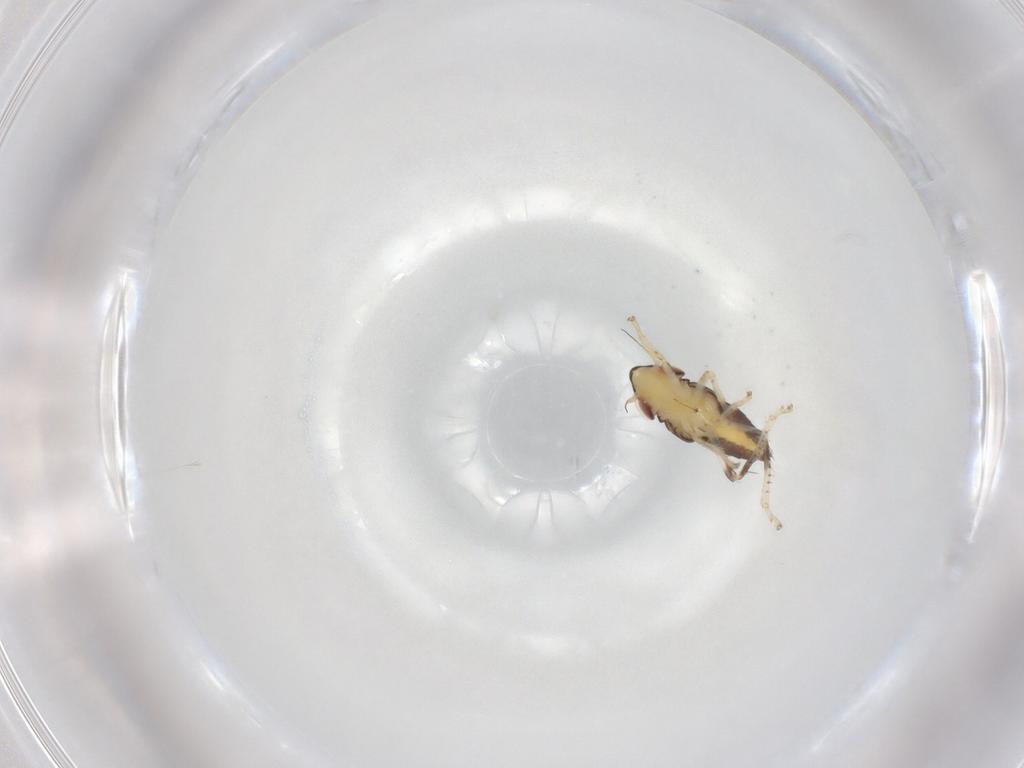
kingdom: Animalia
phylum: Arthropoda
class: Insecta
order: Hemiptera
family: Cicadellidae
